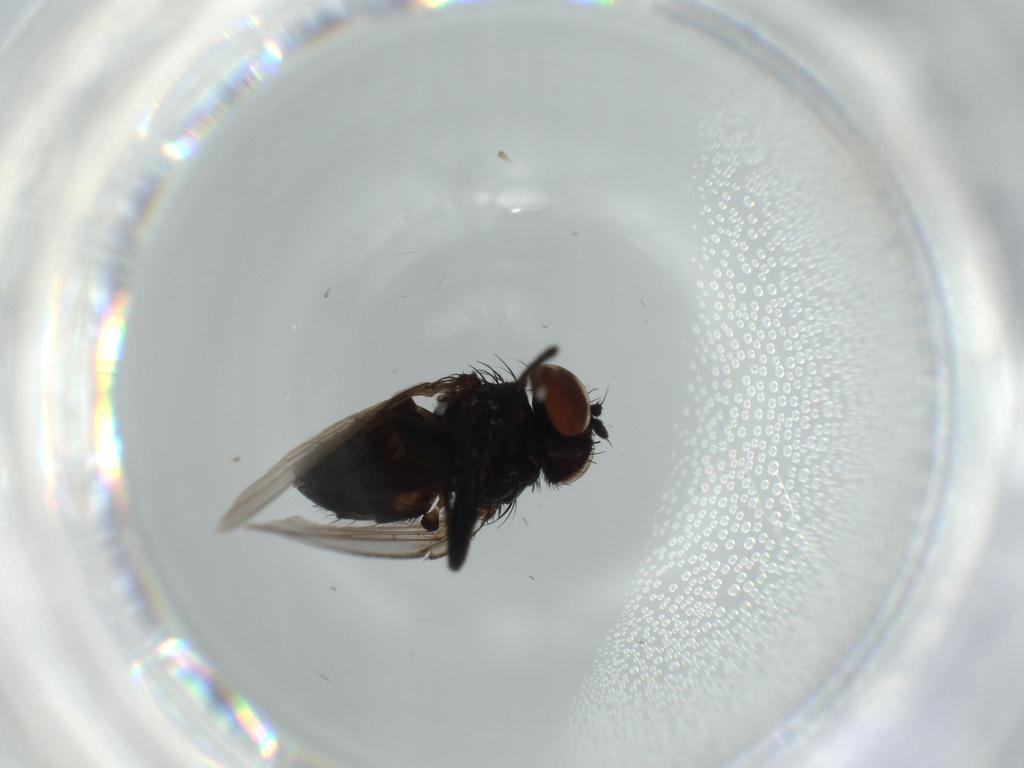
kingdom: Animalia
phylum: Arthropoda
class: Insecta
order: Diptera
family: Milichiidae
